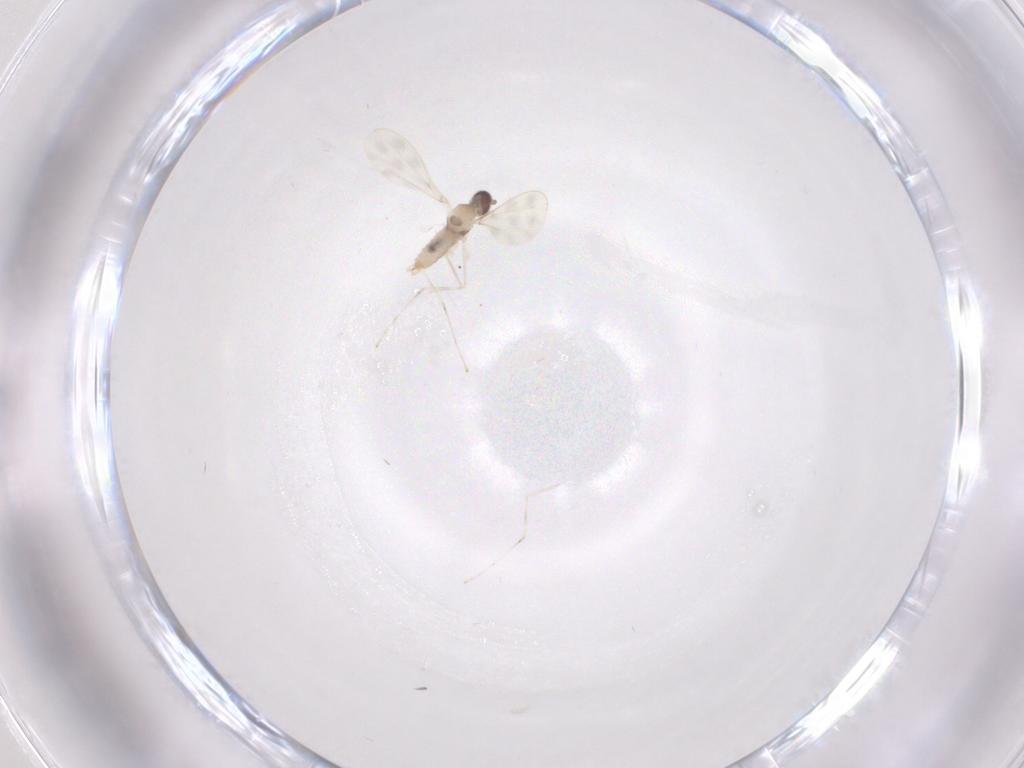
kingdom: Animalia
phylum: Arthropoda
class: Insecta
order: Diptera
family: Cecidomyiidae
